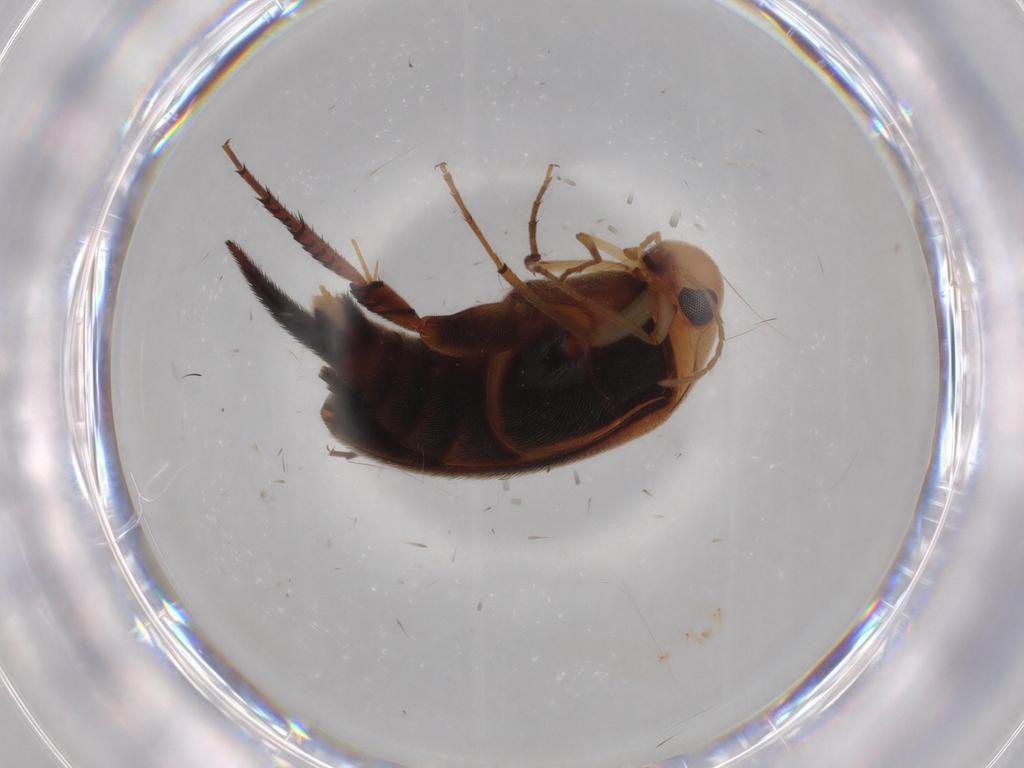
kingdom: Animalia
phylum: Arthropoda
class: Insecta
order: Coleoptera
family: Mordellidae
